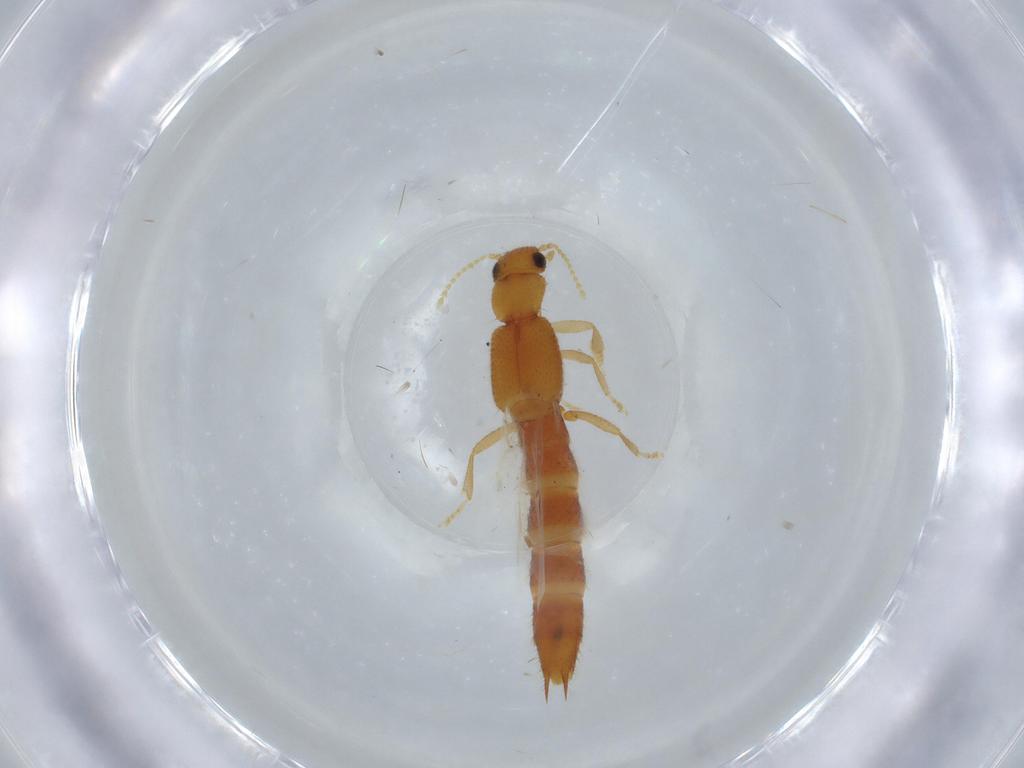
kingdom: Animalia
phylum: Arthropoda
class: Insecta
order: Coleoptera
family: Staphylinidae
